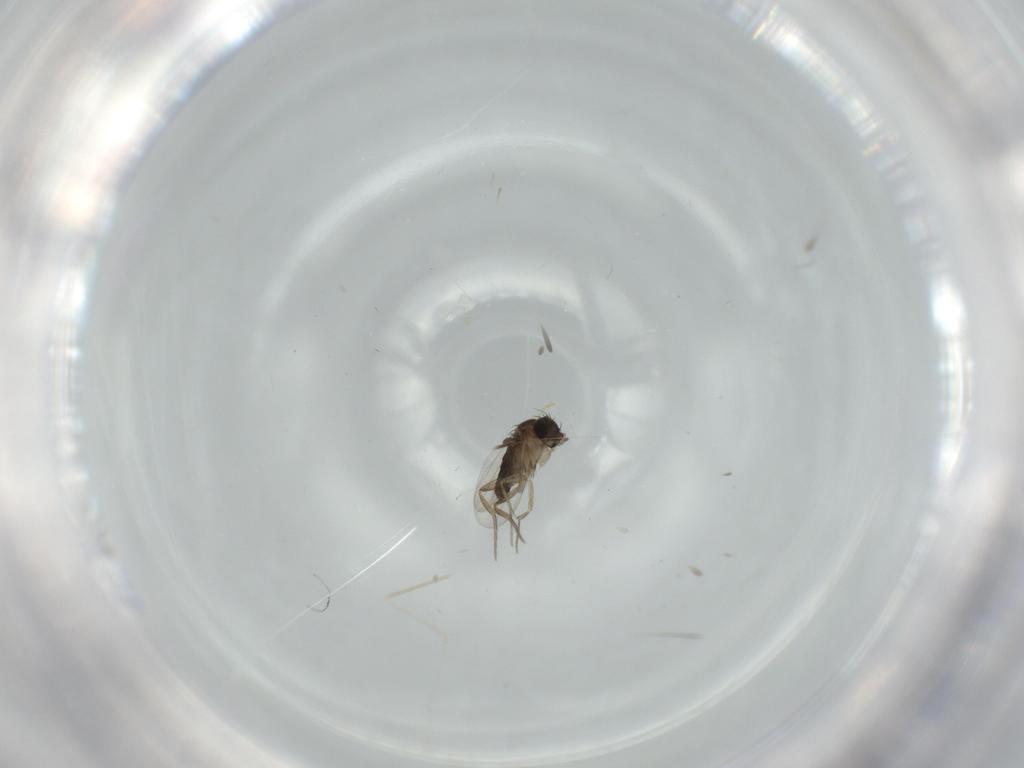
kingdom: Animalia
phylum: Arthropoda
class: Insecta
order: Diptera
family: Dolichopodidae
